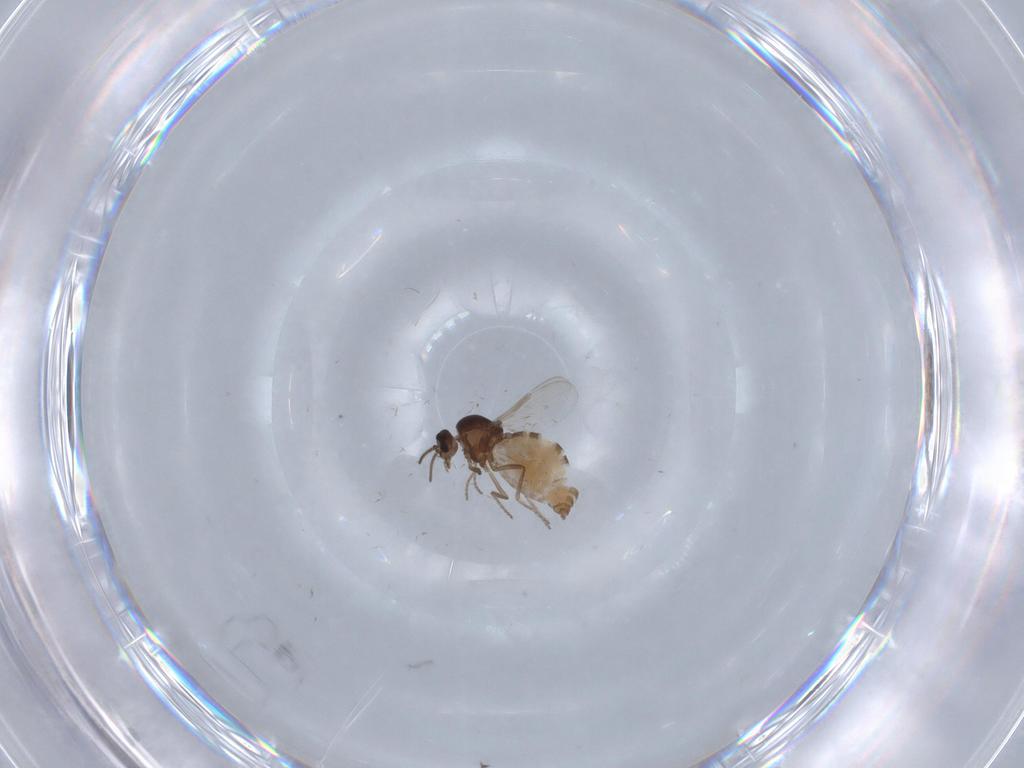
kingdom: Animalia
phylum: Arthropoda
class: Insecta
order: Diptera
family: Ceratopogonidae
